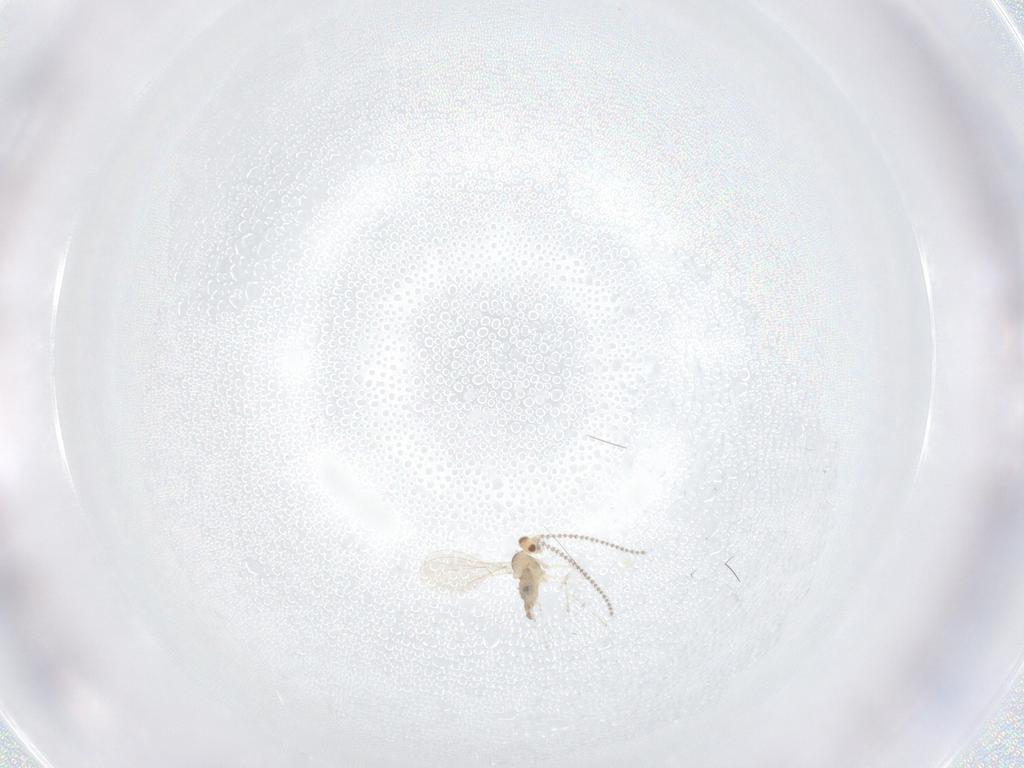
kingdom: Animalia
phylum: Arthropoda
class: Insecta
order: Diptera
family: Cecidomyiidae
